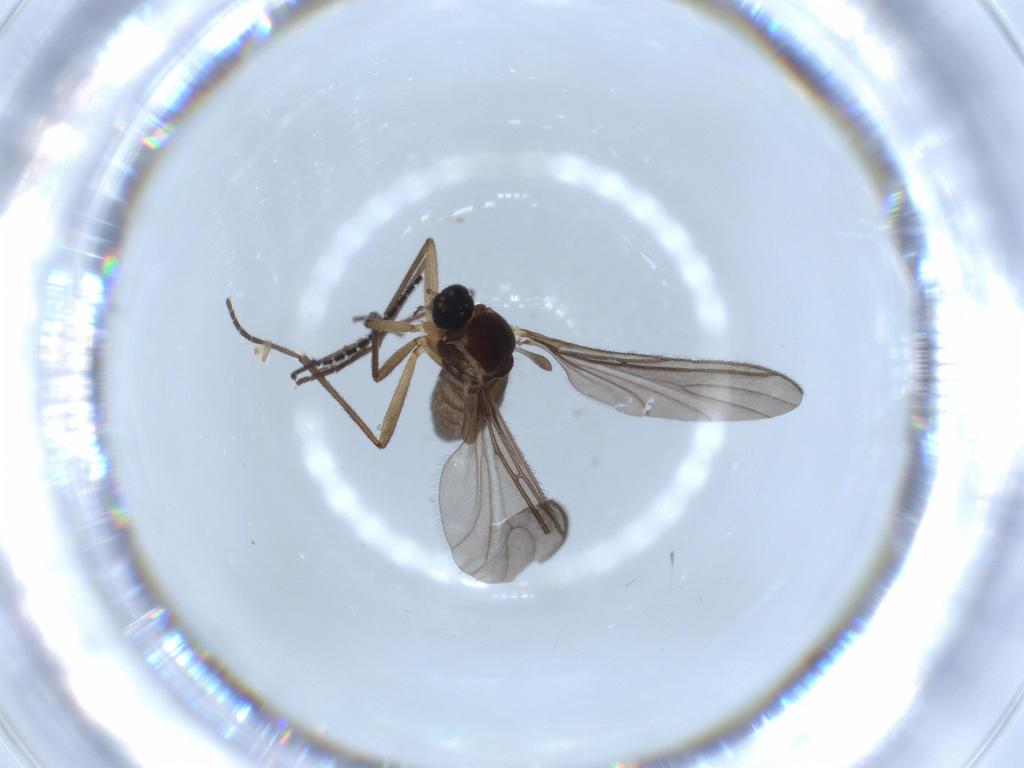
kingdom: Animalia
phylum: Arthropoda
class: Insecta
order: Diptera
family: Sciaridae
